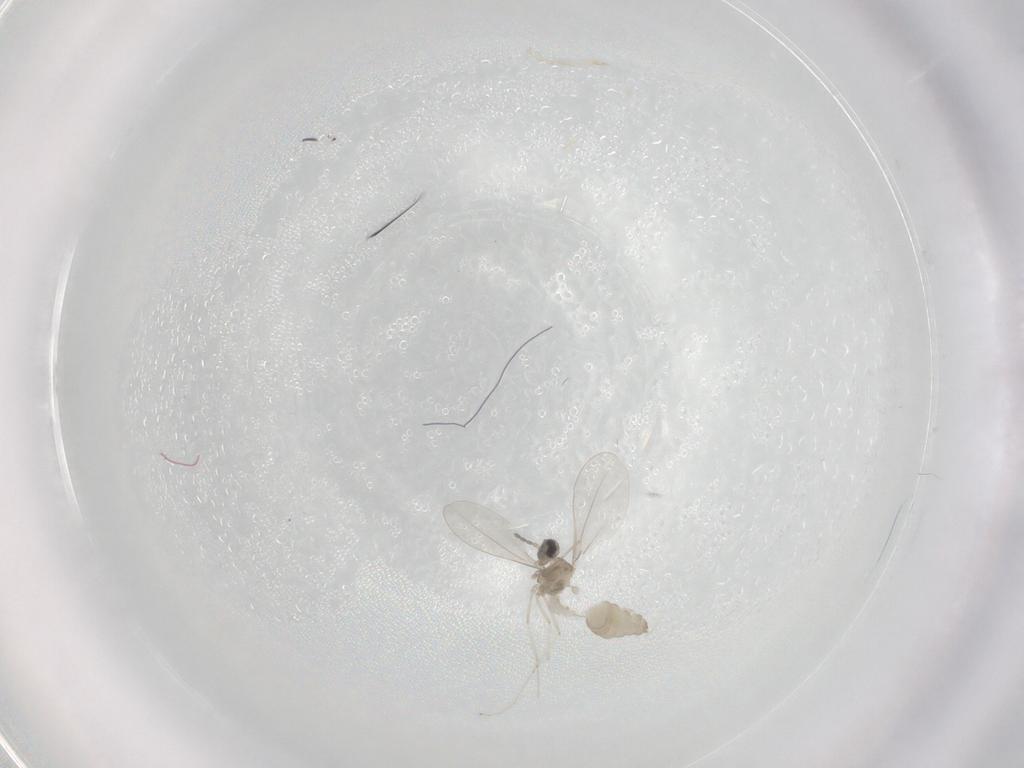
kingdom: Animalia
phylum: Arthropoda
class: Insecta
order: Diptera
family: Cecidomyiidae
